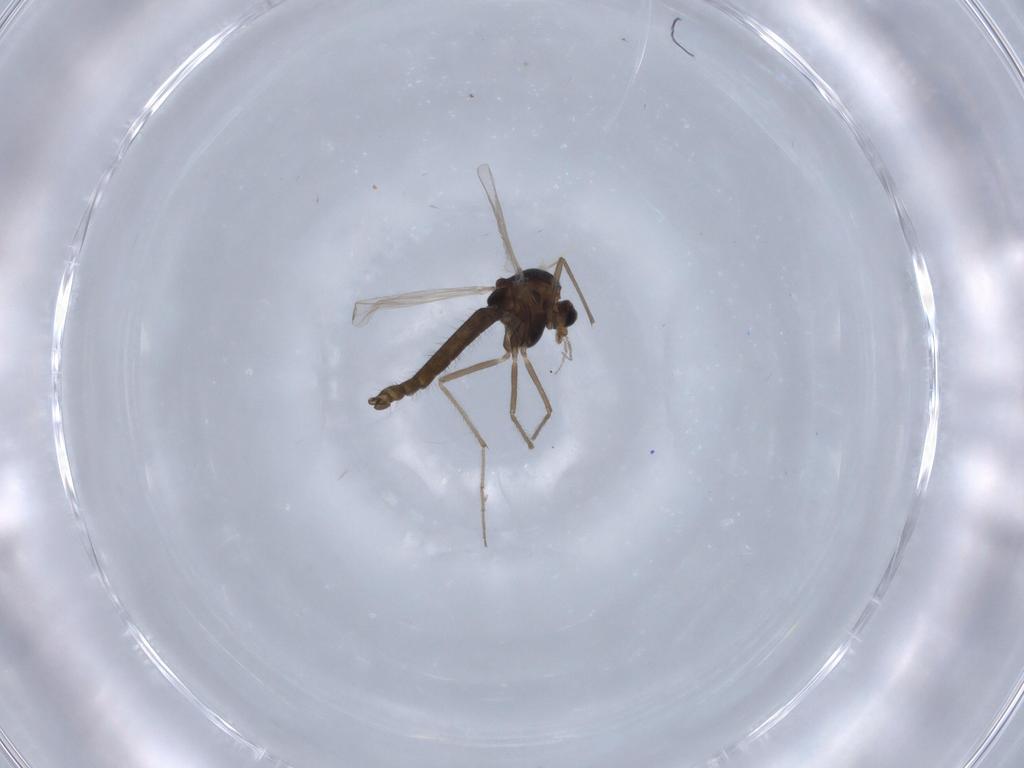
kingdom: Animalia
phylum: Arthropoda
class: Insecta
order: Diptera
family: Chironomidae
